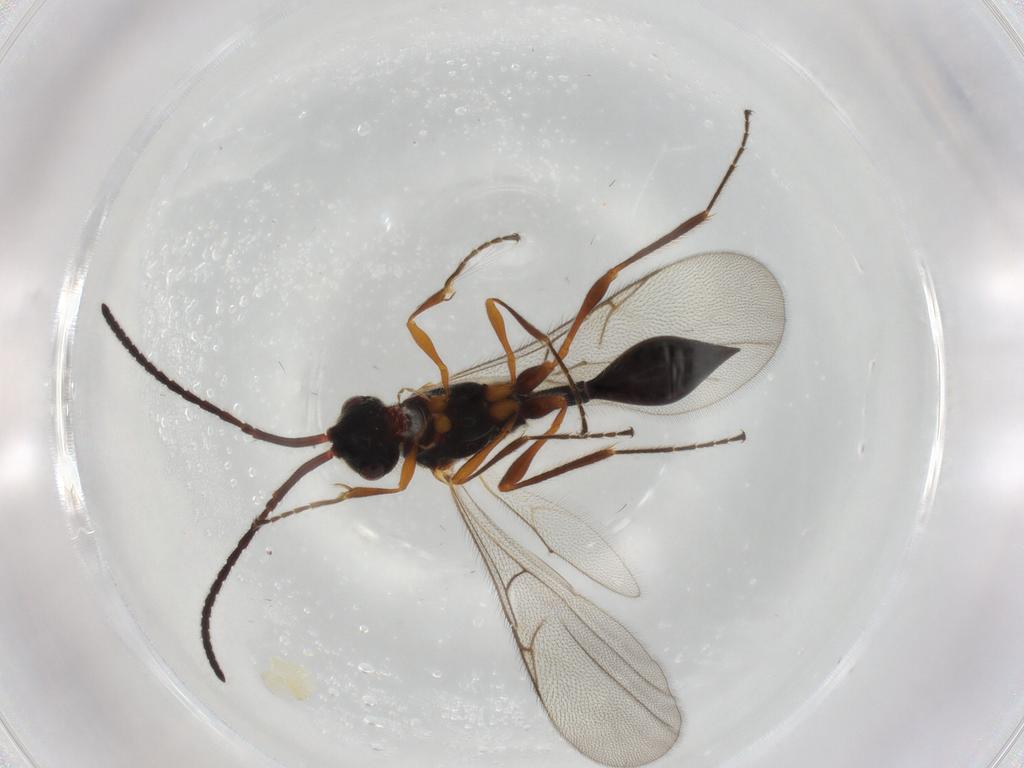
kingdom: Animalia
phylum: Arthropoda
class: Insecta
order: Hymenoptera
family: Diapriidae
